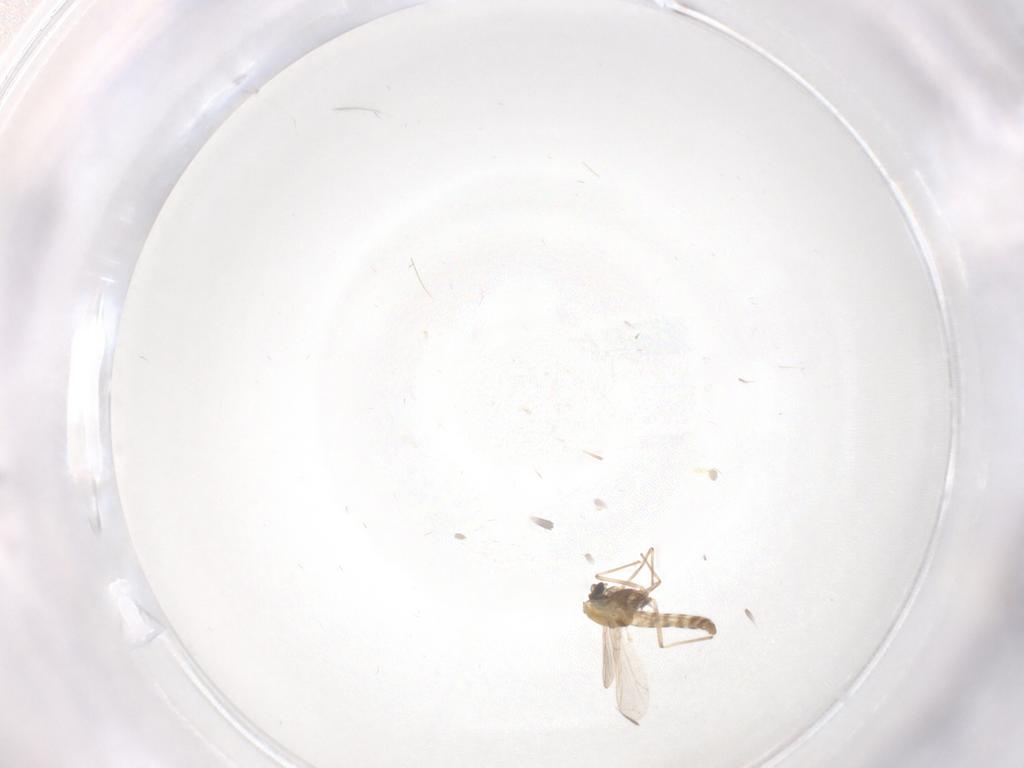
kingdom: Animalia
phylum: Arthropoda
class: Insecta
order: Diptera
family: Chironomidae
